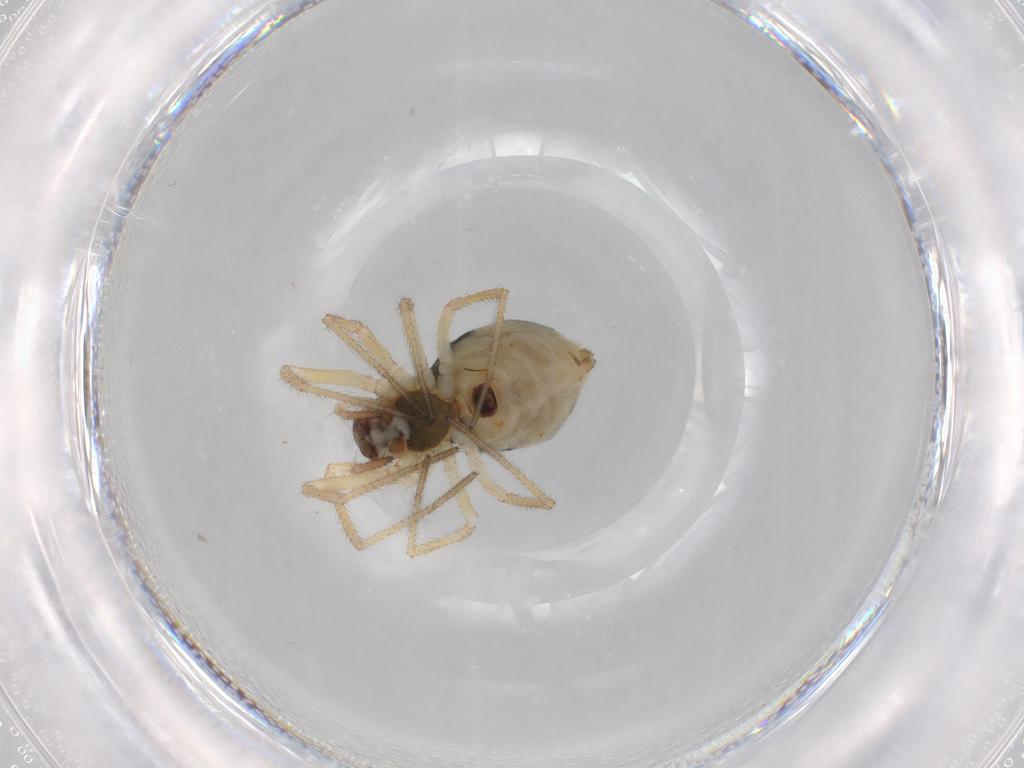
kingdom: Animalia
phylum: Arthropoda
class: Arachnida
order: Araneae
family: Linyphiidae
